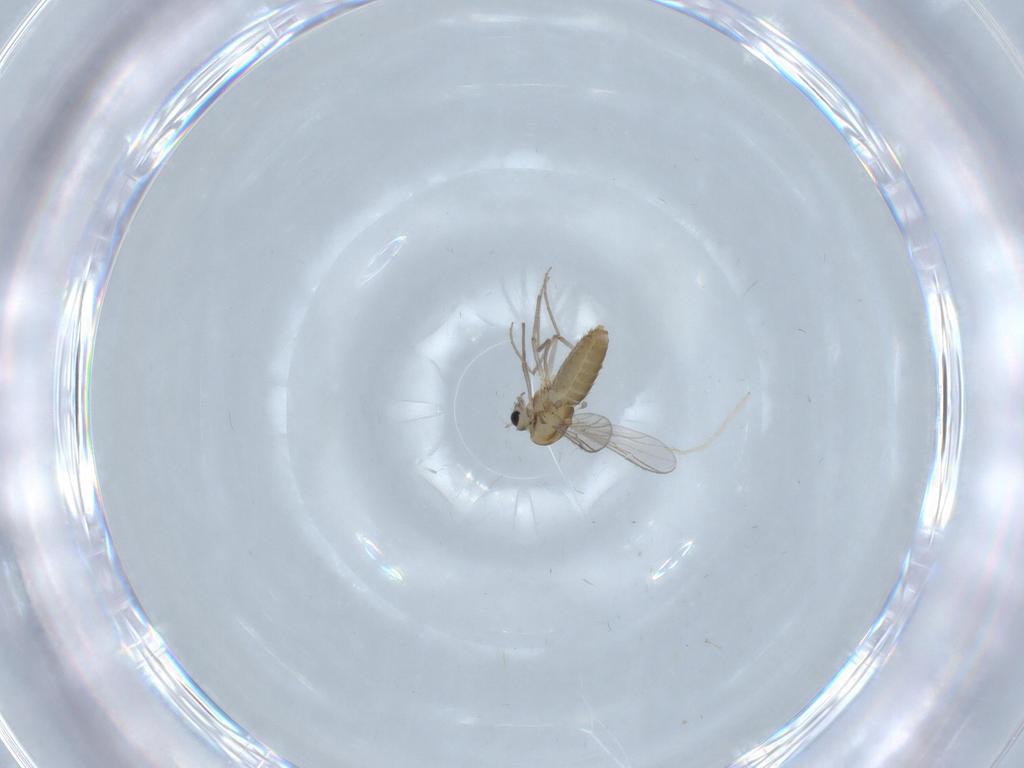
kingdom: Animalia
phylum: Arthropoda
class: Insecta
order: Diptera
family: Chironomidae
